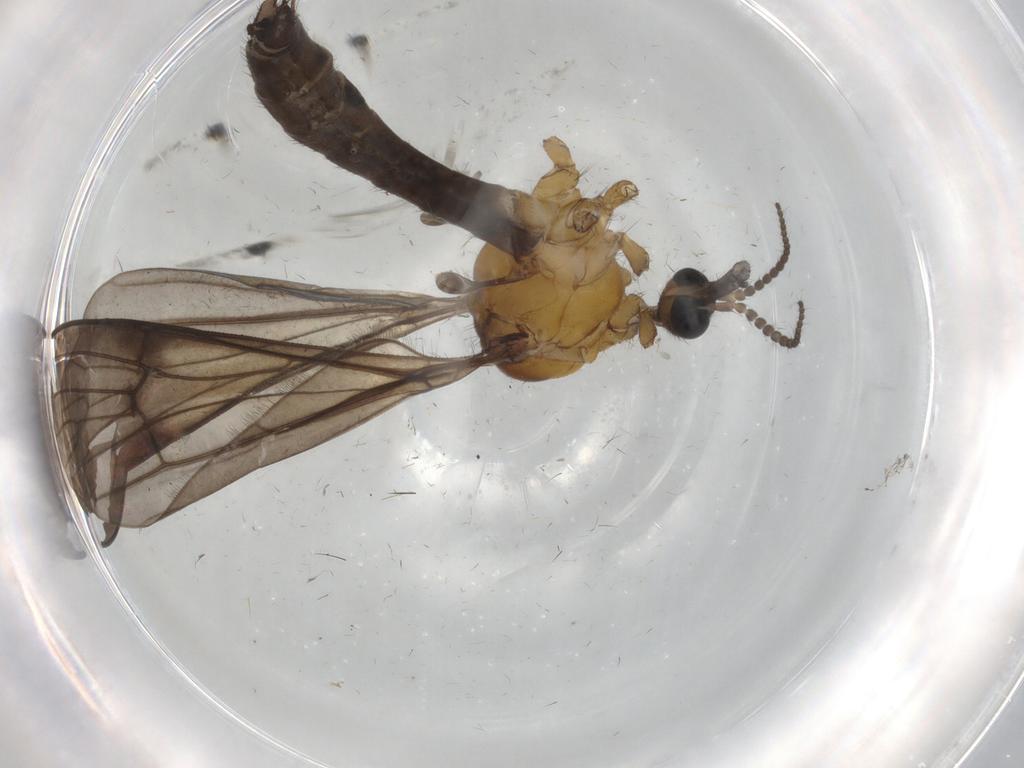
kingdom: Animalia
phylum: Arthropoda
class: Insecta
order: Diptera
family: Limoniidae
